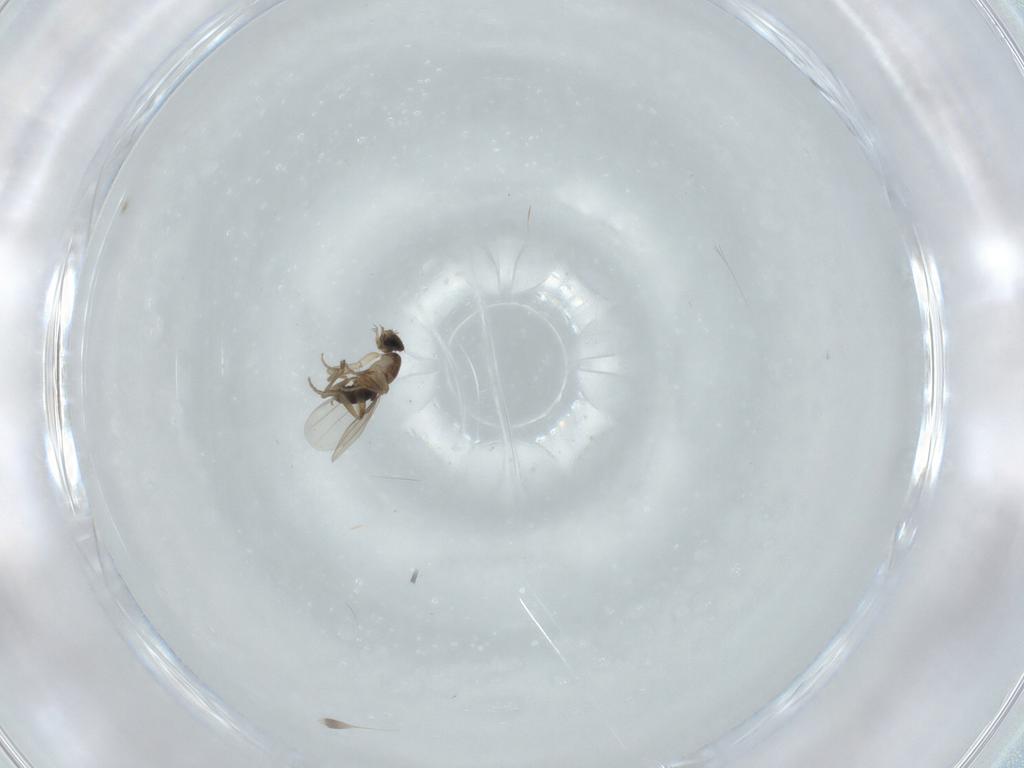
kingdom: Animalia
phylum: Arthropoda
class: Insecta
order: Diptera
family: Phoridae
